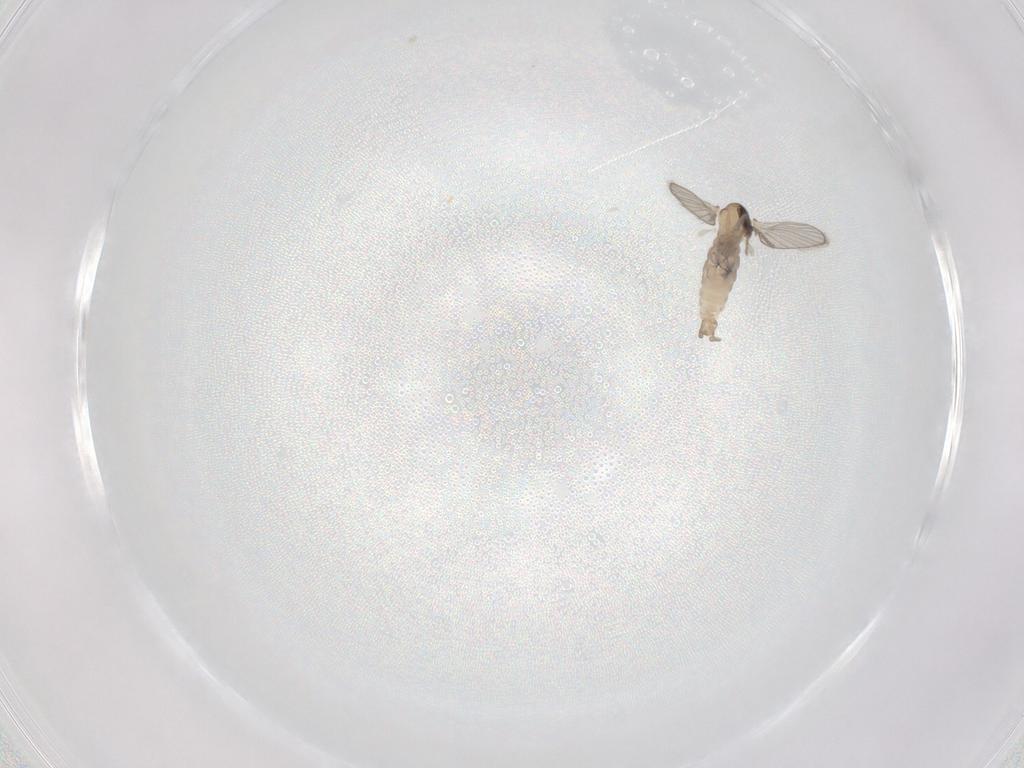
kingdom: Animalia
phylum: Arthropoda
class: Insecta
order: Diptera
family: Psychodidae
